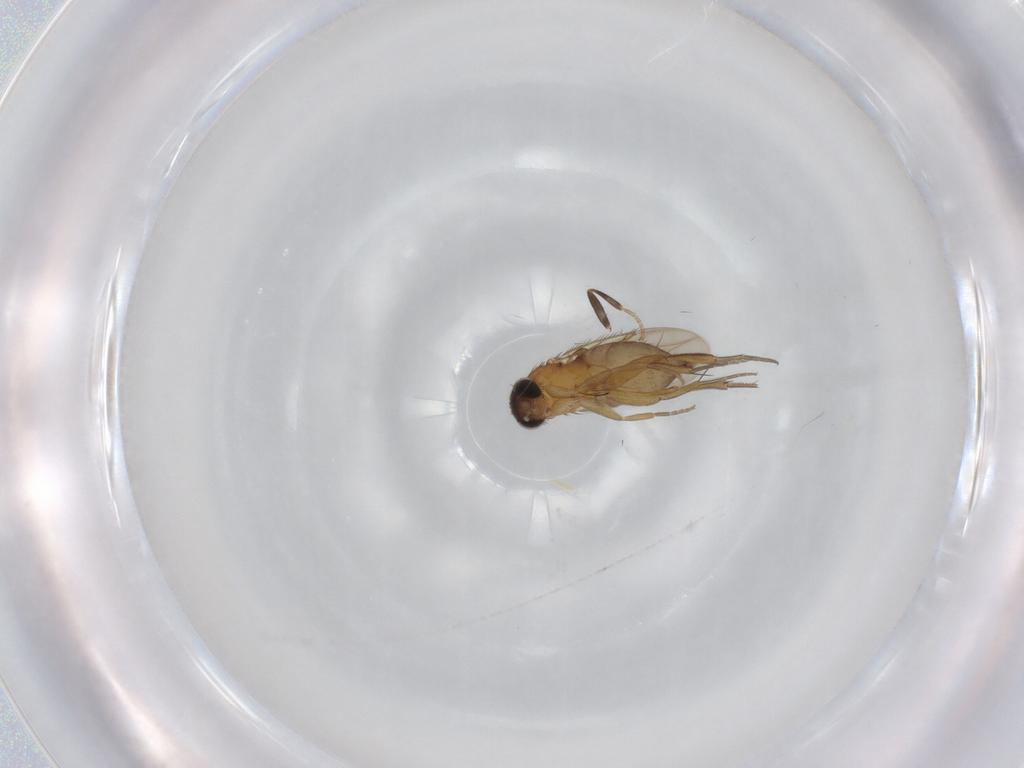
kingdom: Animalia
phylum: Arthropoda
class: Insecta
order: Diptera
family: Phoridae
